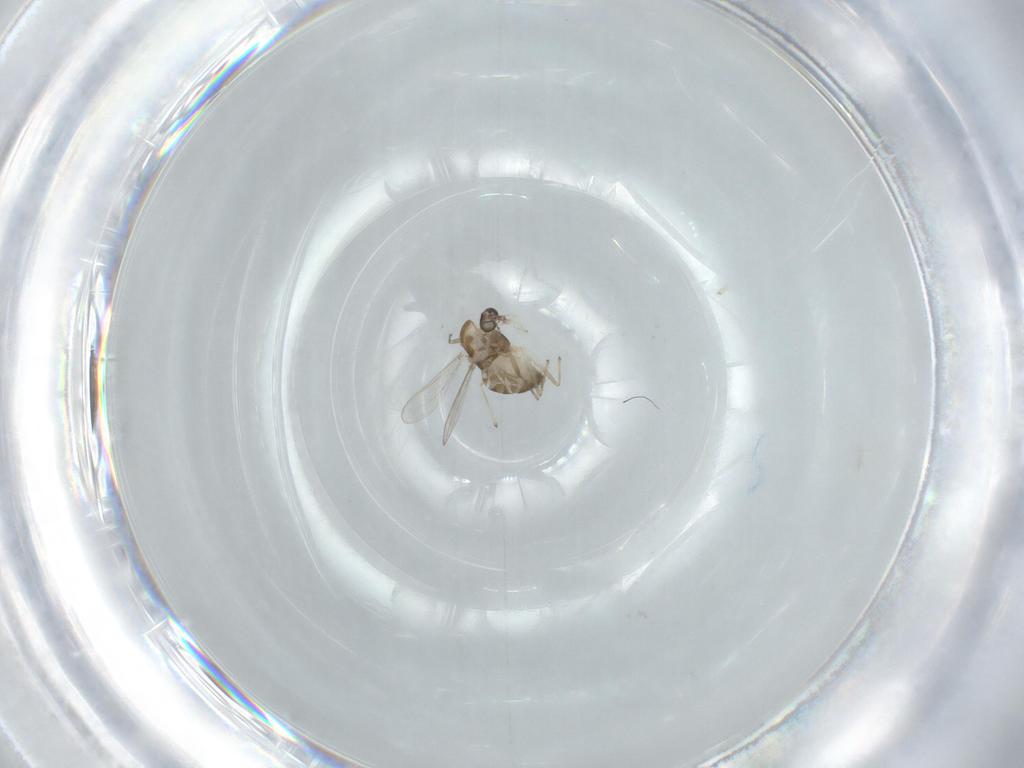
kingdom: Animalia
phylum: Arthropoda
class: Insecta
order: Diptera
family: Chironomidae
